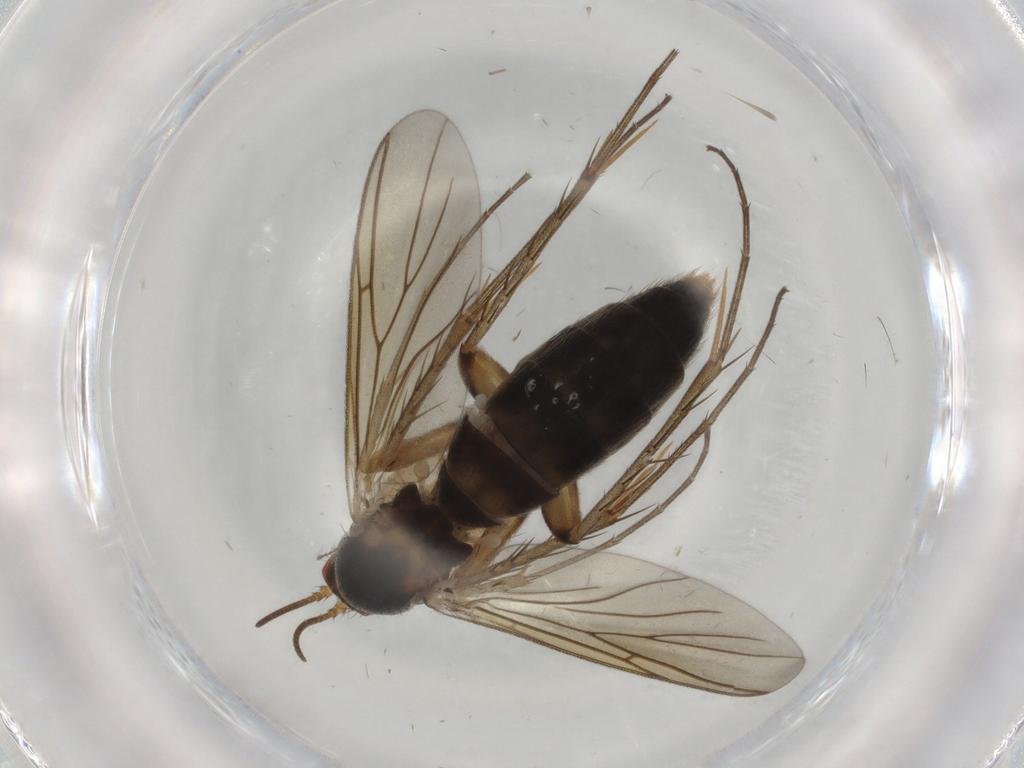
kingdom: Animalia
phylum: Arthropoda
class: Insecta
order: Diptera
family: Mycetophilidae
